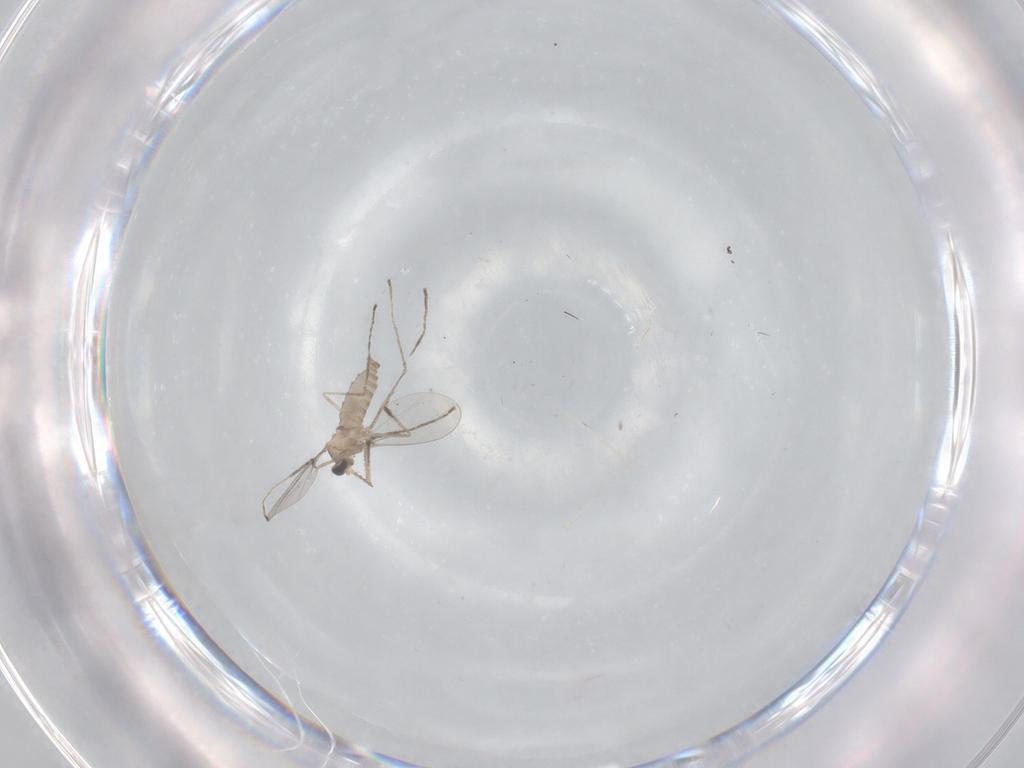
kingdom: Animalia
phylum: Arthropoda
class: Insecta
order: Diptera
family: Cecidomyiidae
